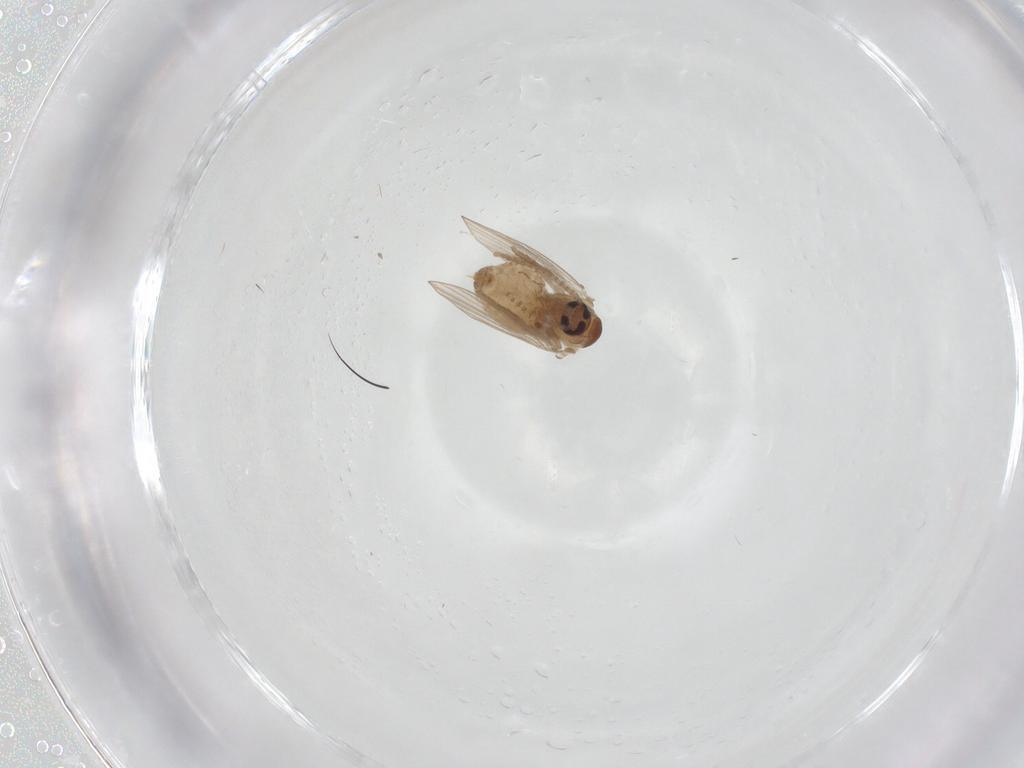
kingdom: Animalia
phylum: Arthropoda
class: Insecta
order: Diptera
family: Psychodidae
